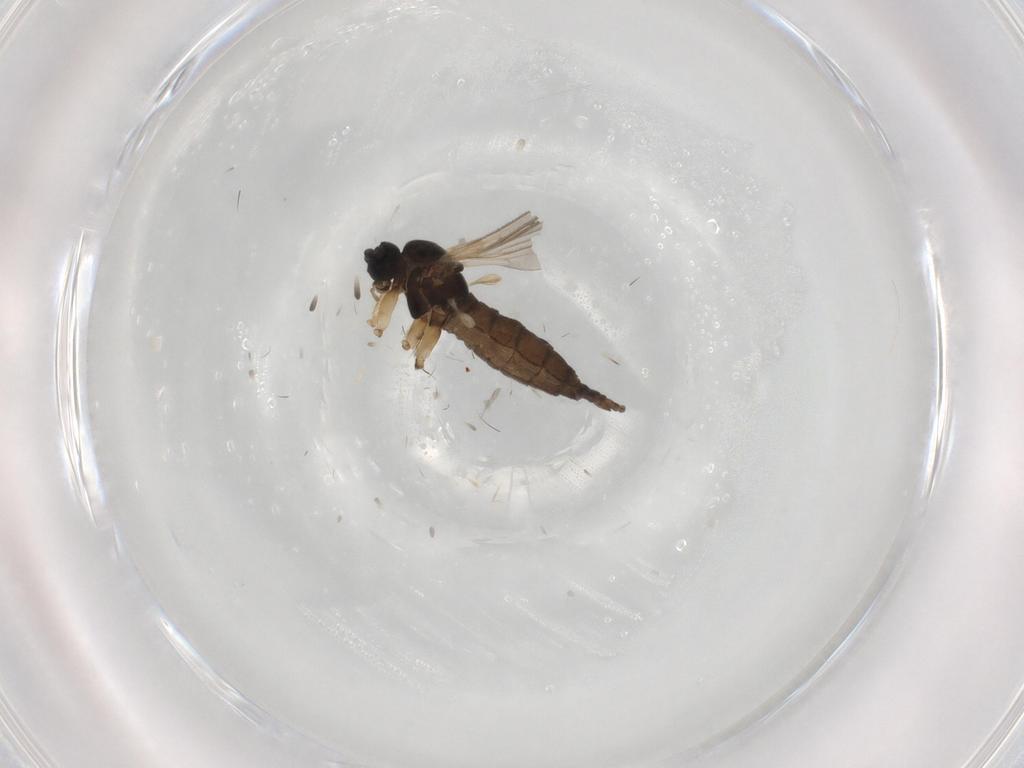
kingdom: Animalia
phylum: Arthropoda
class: Insecta
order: Diptera
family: Sciaridae
